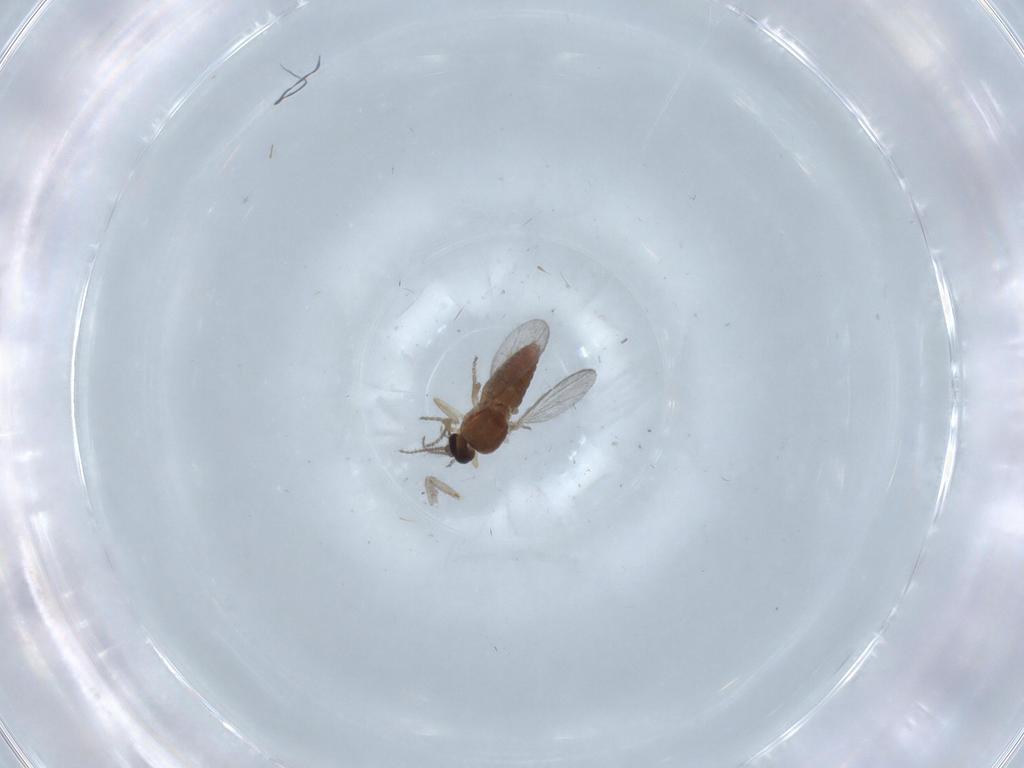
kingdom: Animalia
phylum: Arthropoda
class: Insecta
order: Diptera
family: Ceratopogonidae
